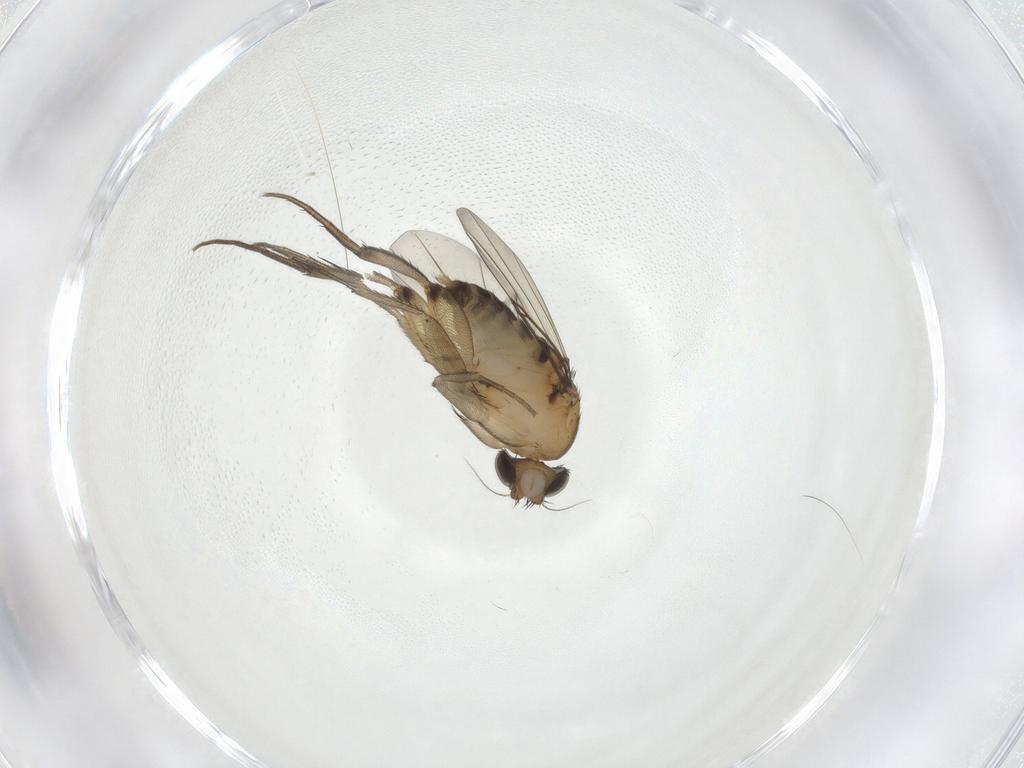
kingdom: Animalia
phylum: Arthropoda
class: Insecta
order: Diptera
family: Phoridae
